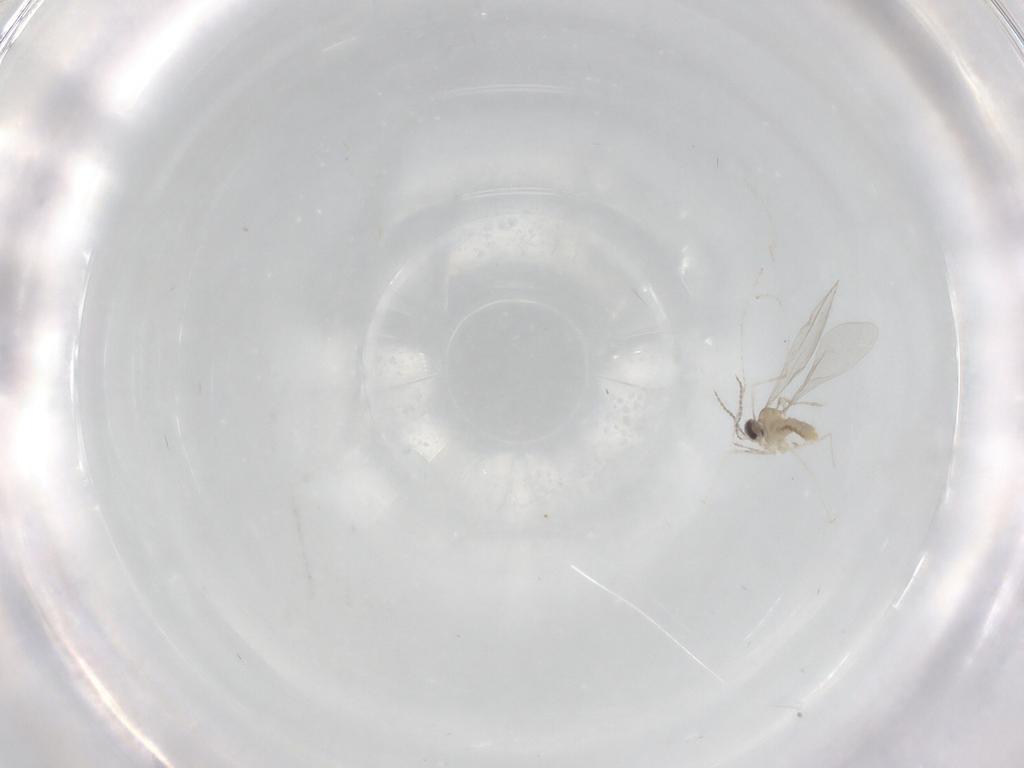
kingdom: Animalia
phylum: Arthropoda
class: Insecta
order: Diptera
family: Cecidomyiidae
